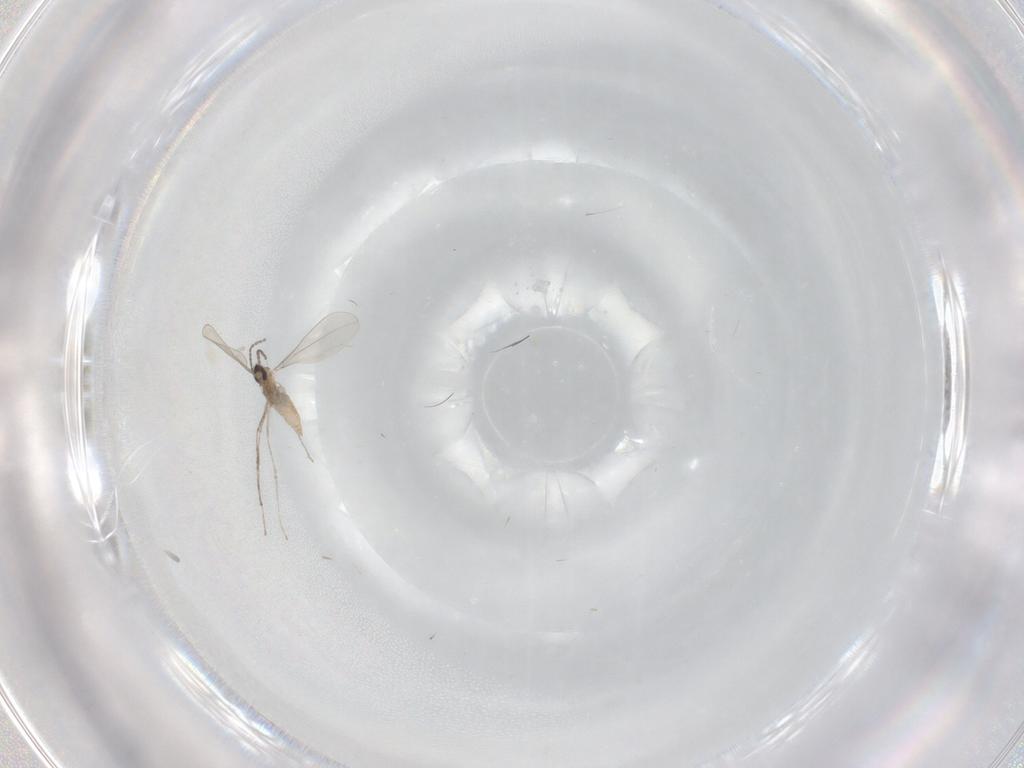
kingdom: Animalia
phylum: Arthropoda
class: Insecta
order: Diptera
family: Cecidomyiidae
